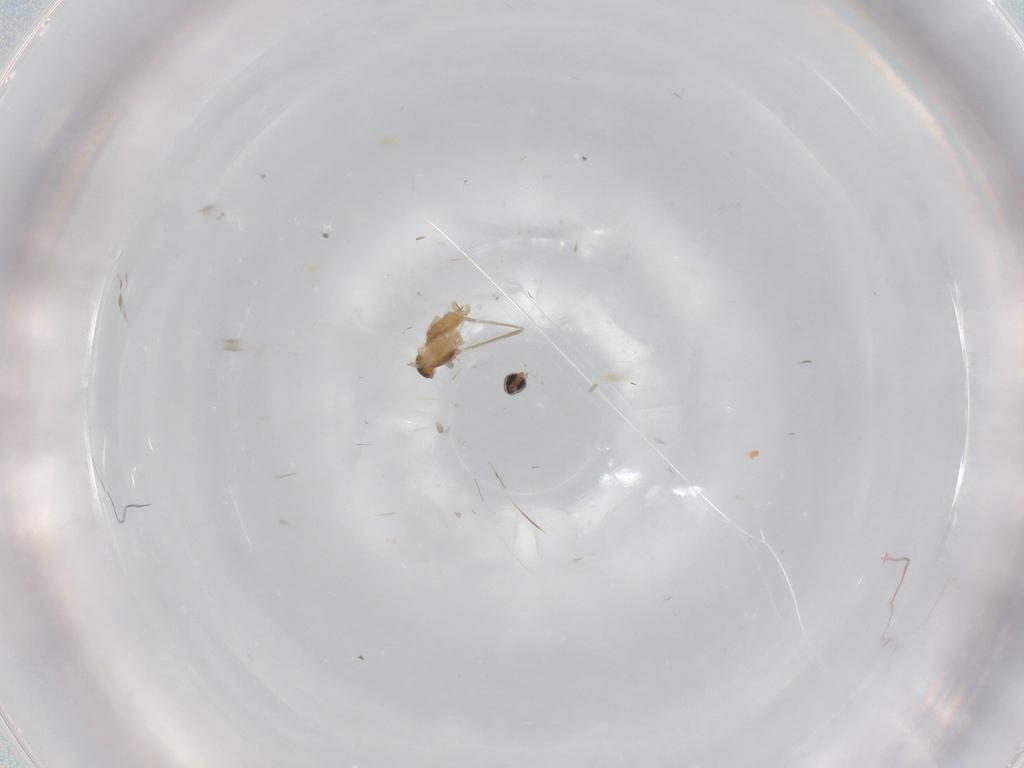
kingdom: Animalia
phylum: Arthropoda
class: Insecta
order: Diptera
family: Cecidomyiidae
